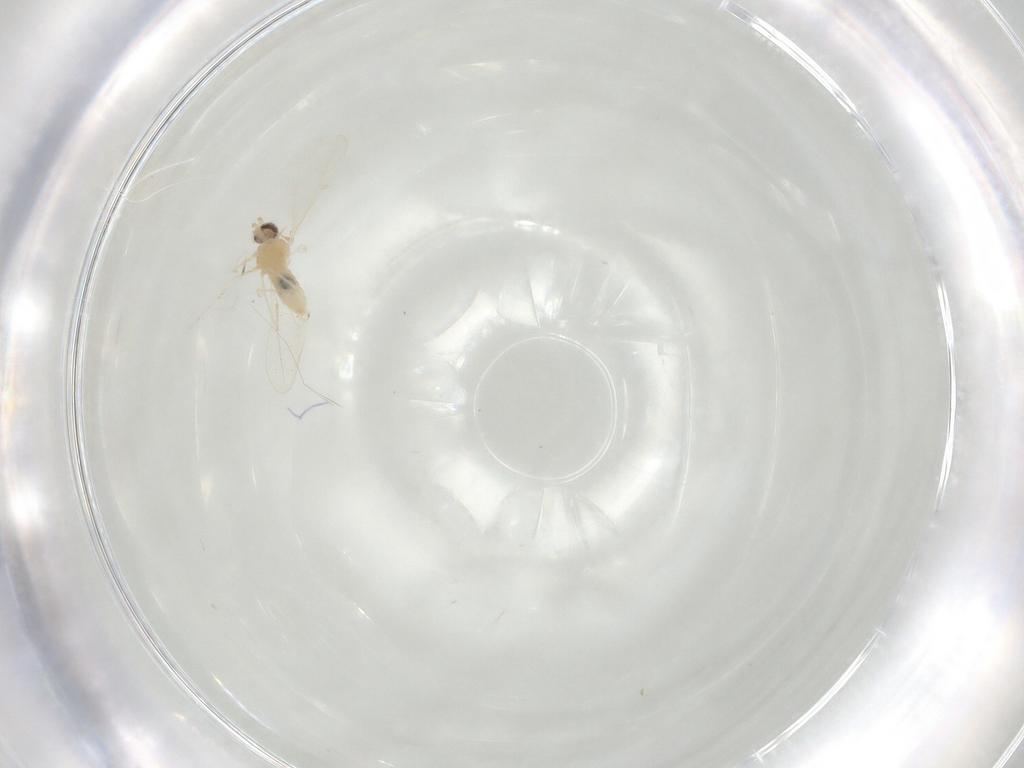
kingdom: Animalia
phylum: Arthropoda
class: Insecta
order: Diptera
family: Cecidomyiidae
